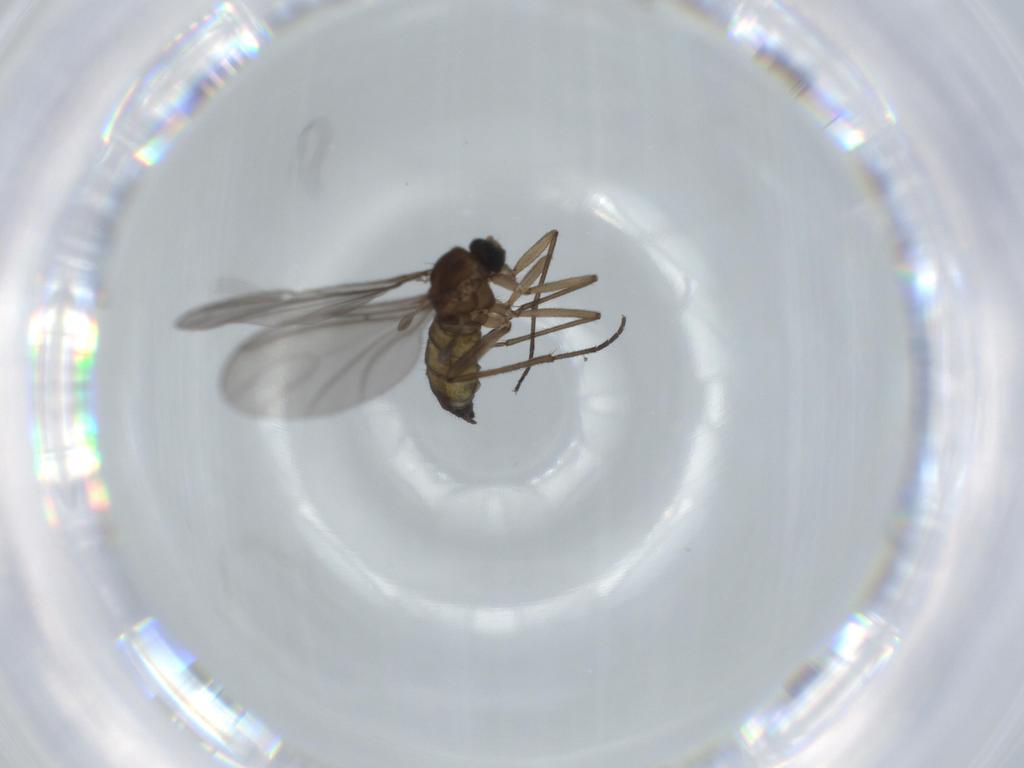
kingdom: Animalia
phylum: Arthropoda
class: Insecta
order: Diptera
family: Sciaridae
